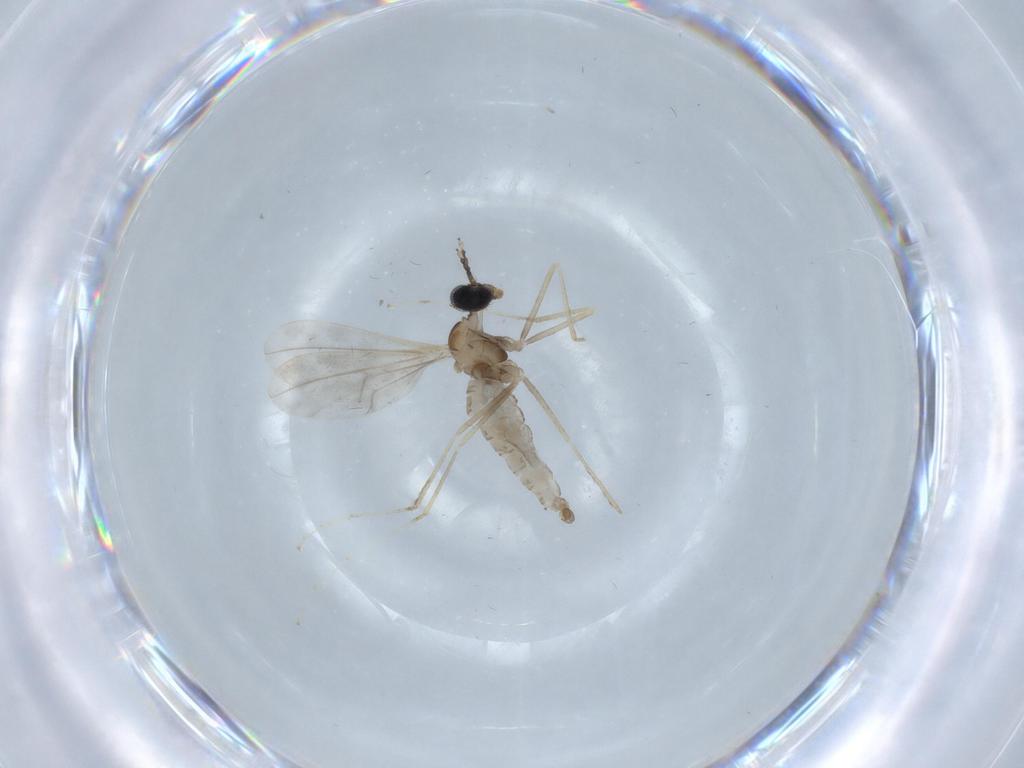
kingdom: Animalia
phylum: Arthropoda
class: Insecta
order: Diptera
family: Cecidomyiidae
